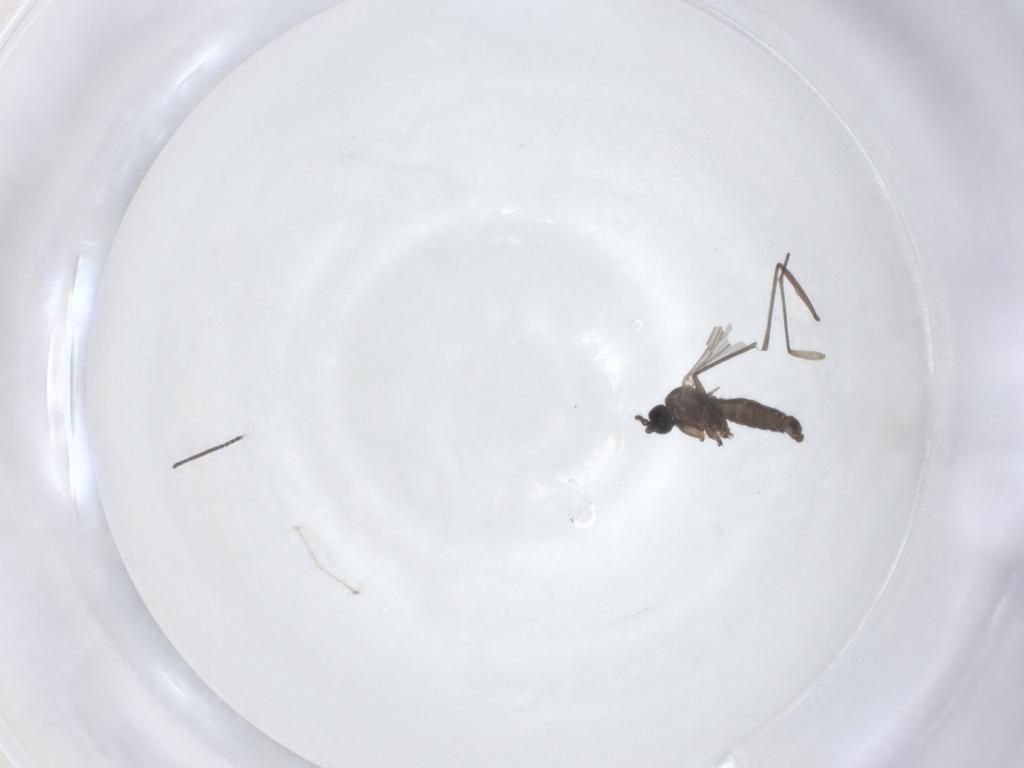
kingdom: Animalia
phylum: Arthropoda
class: Insecta
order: Diptera
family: Anthomyiidae
